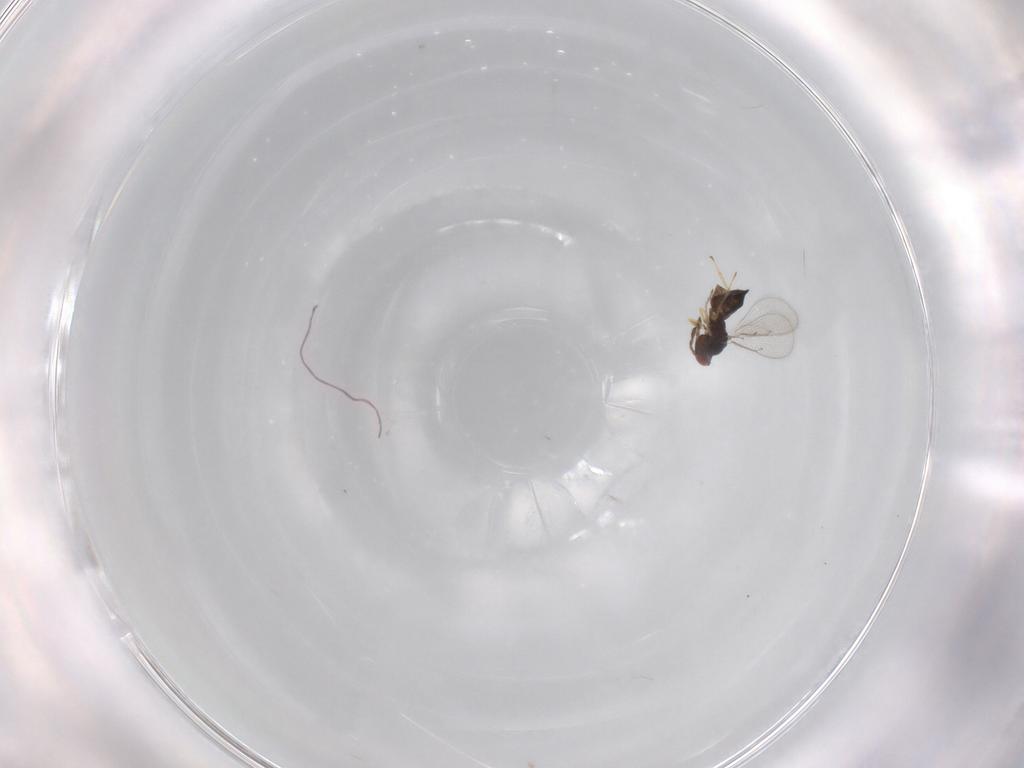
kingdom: Animalia
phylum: Arthropoda
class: Insecta
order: Hymenoptera
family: Eulophidae
